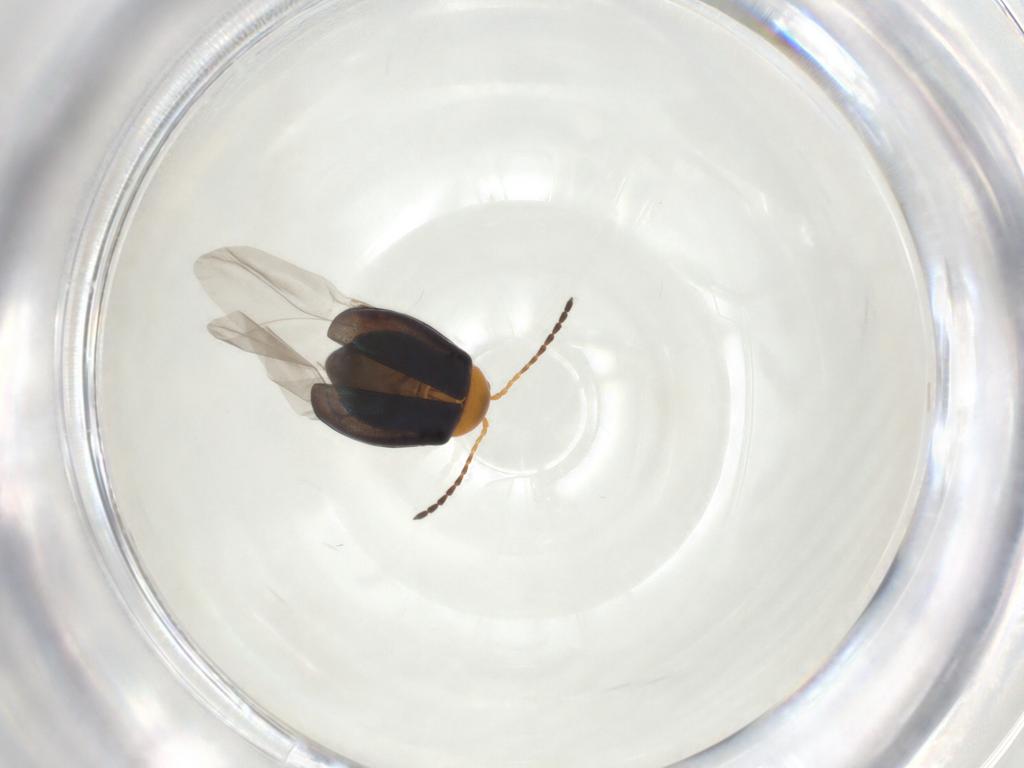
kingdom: Animalia
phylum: Arthropoda
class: Insecta
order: Coleoptera
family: Chrysomelidae
